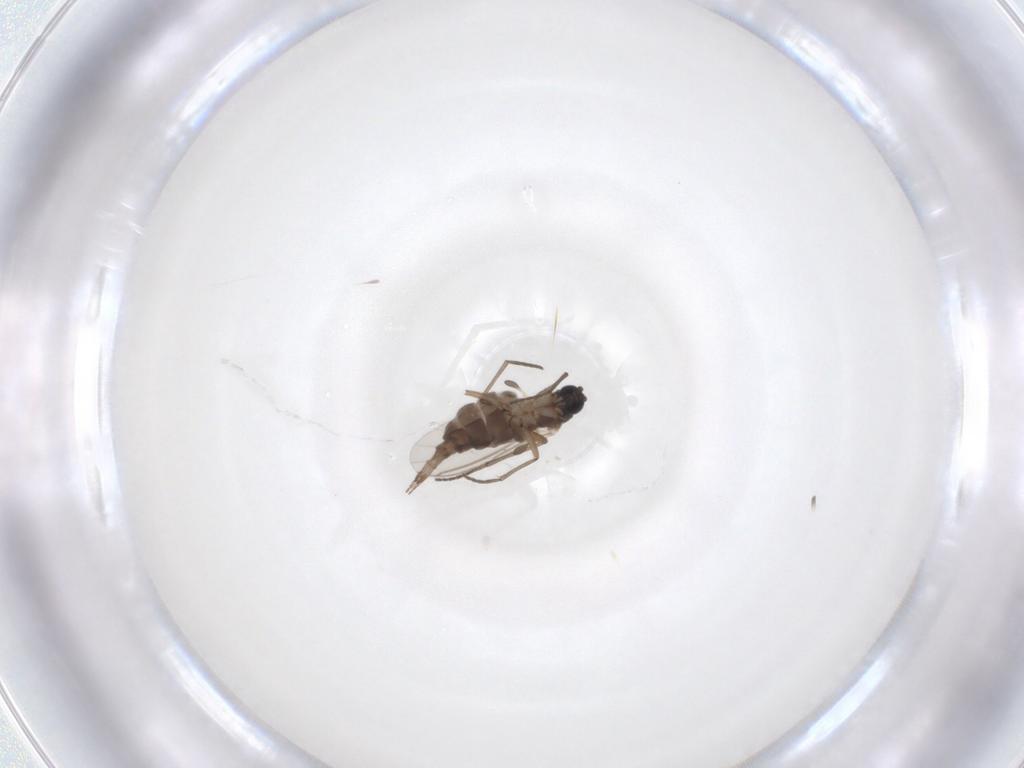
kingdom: Animalia
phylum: Arthropoda
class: Insecta
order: Diptera
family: Sciaridae
